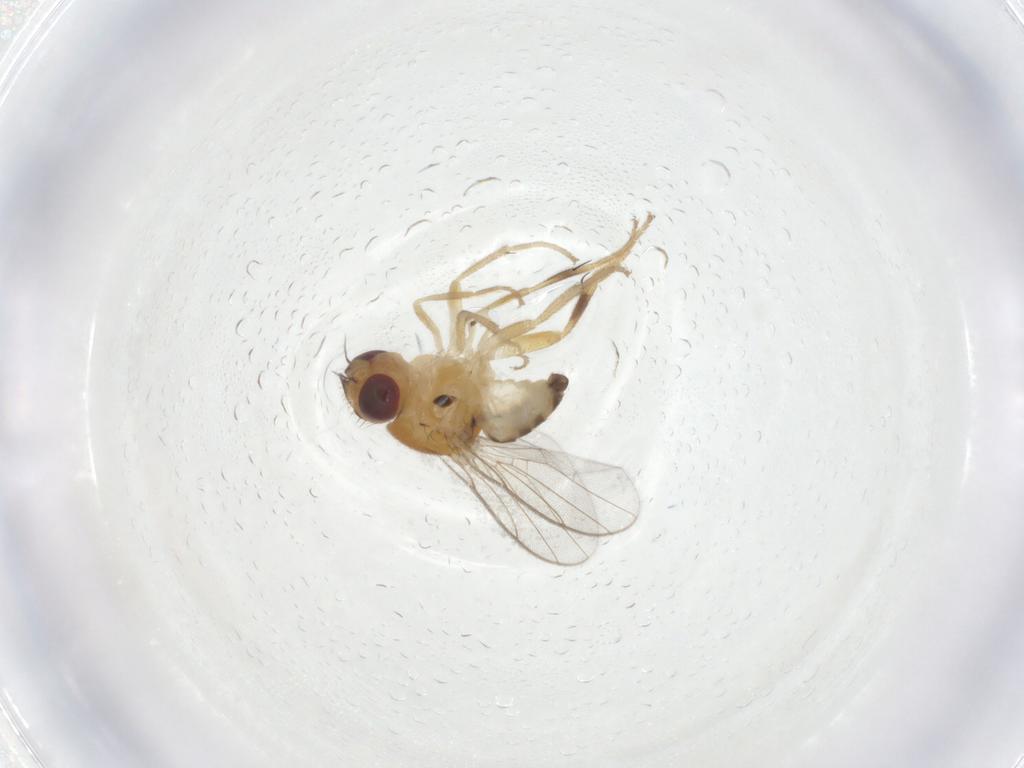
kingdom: Animalia
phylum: Arthropoda
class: Insecta
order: Diptera
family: Chloropidae
